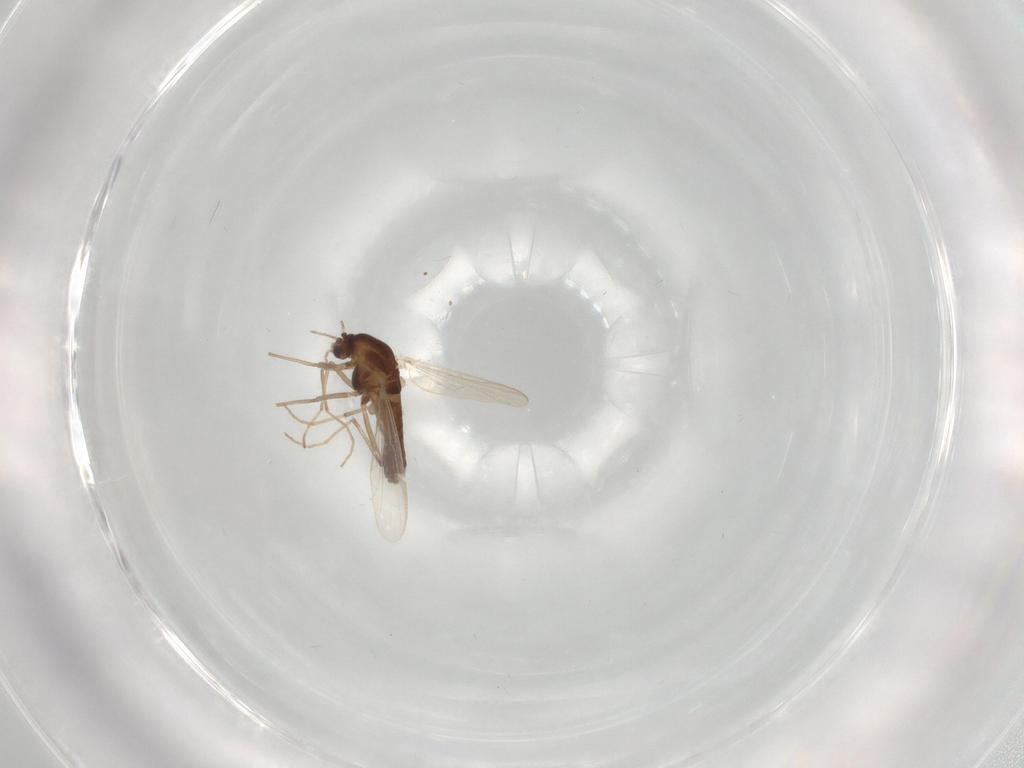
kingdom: Animalia
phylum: Arthropoda
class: Insecta
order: Diptera
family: Chironomidae
